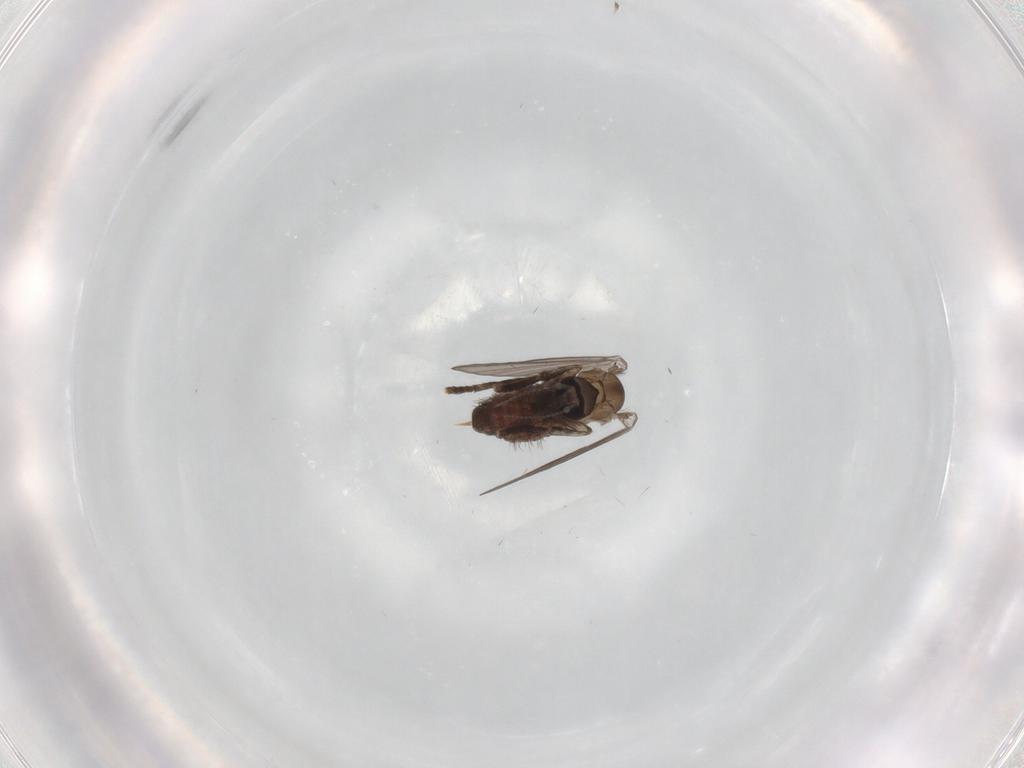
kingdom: Animalia
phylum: Arthropoda
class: Insecta
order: Diptera
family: Psychodidae
